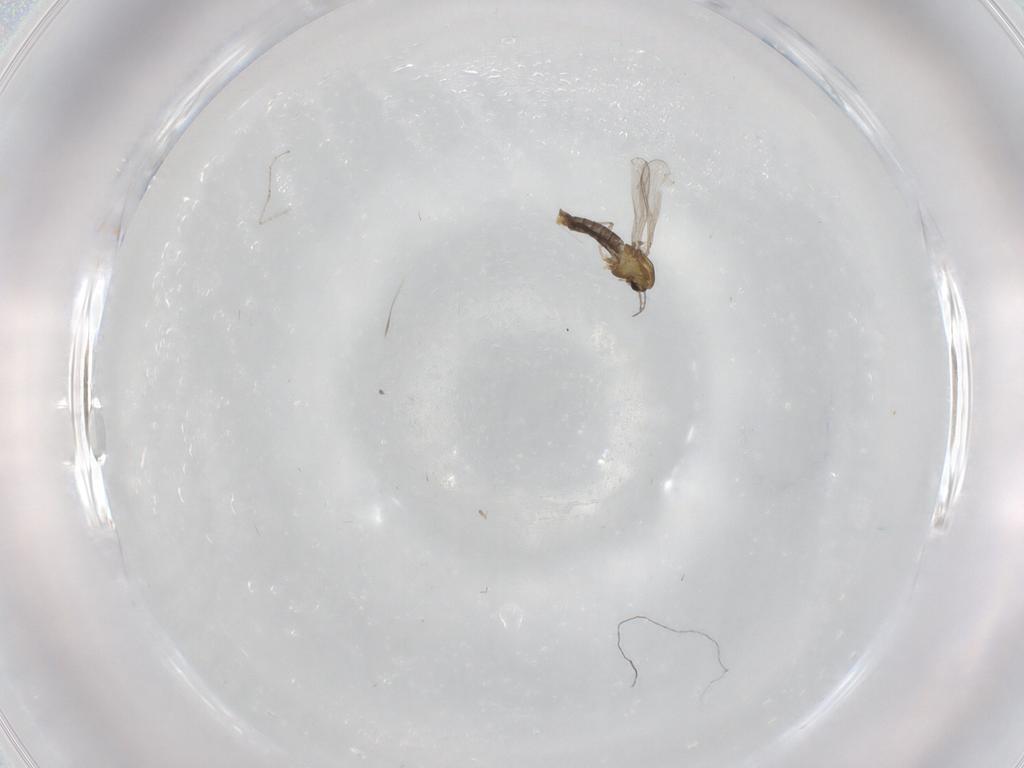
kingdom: Animalia
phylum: Arthropoda
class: Insecta
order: Diptera
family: Chironomidae
